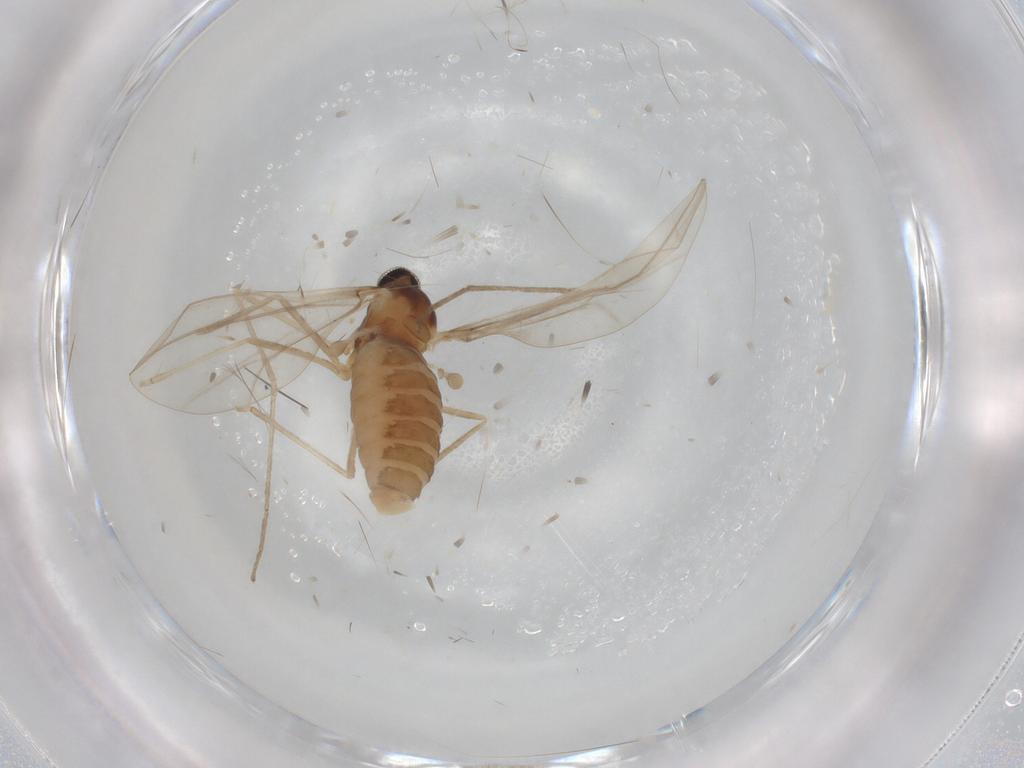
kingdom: Animalia
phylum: Arthropoda
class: Insecta
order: Diptera
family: Cecidomyiidae
